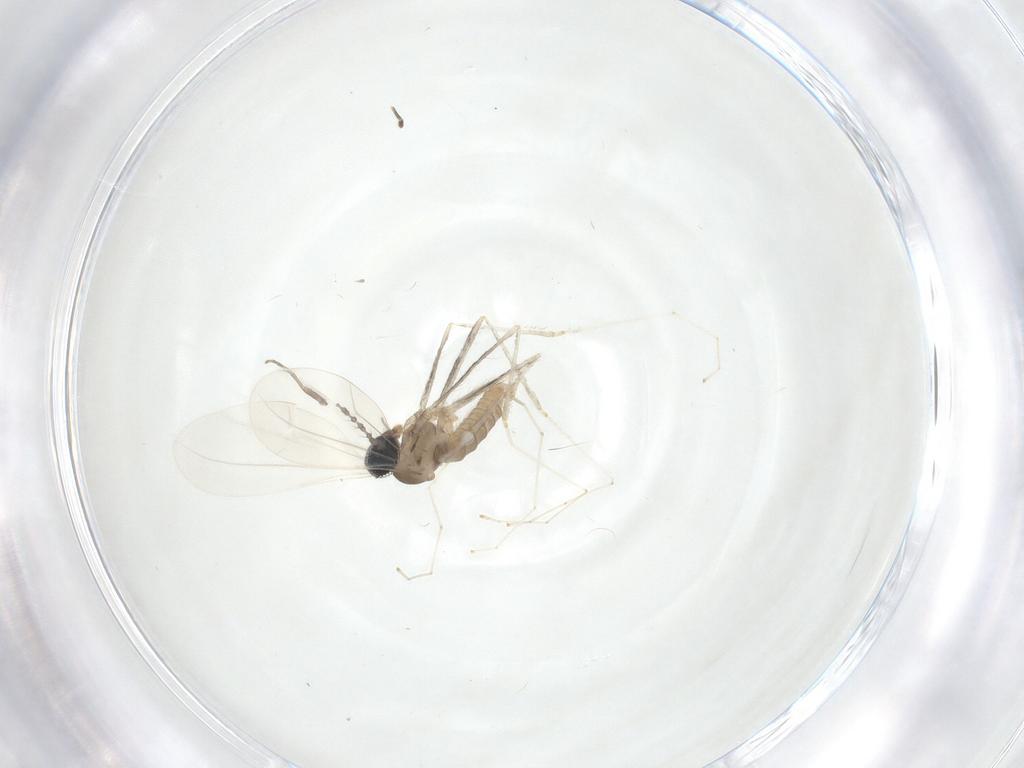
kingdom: Animalia
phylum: Arthropoda
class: Insecta
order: Diptera
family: Cecidomyiidae
